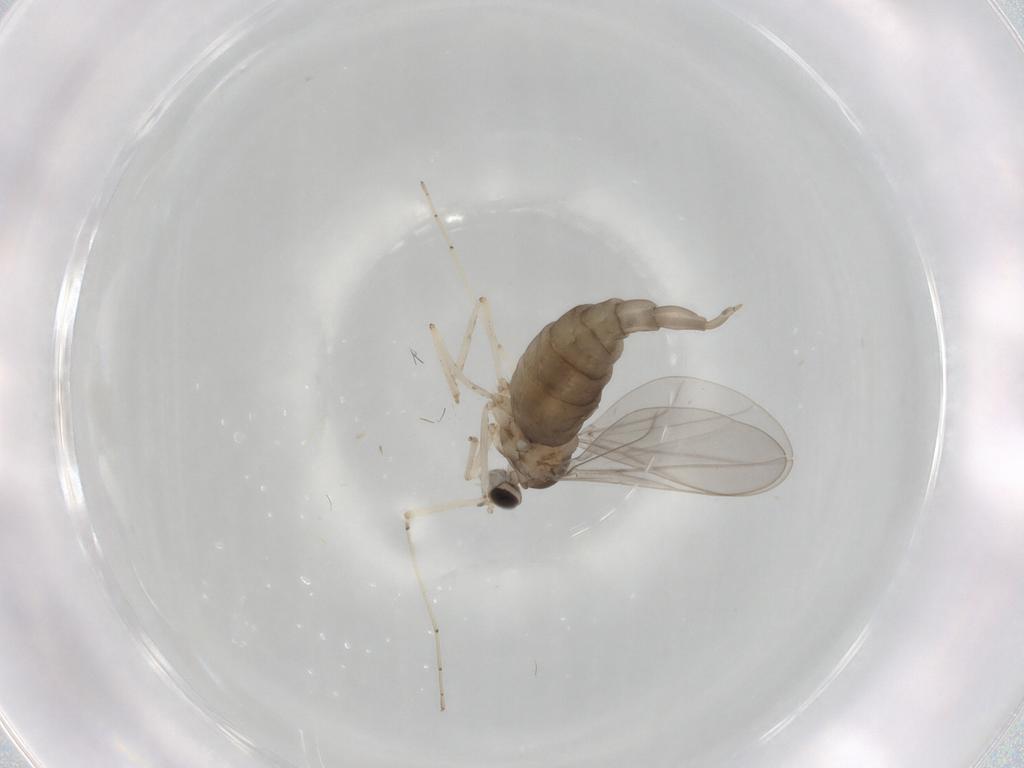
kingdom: Animalia
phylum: Arthropoda
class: Insecta
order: Diptera
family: Cecidomyiidae
